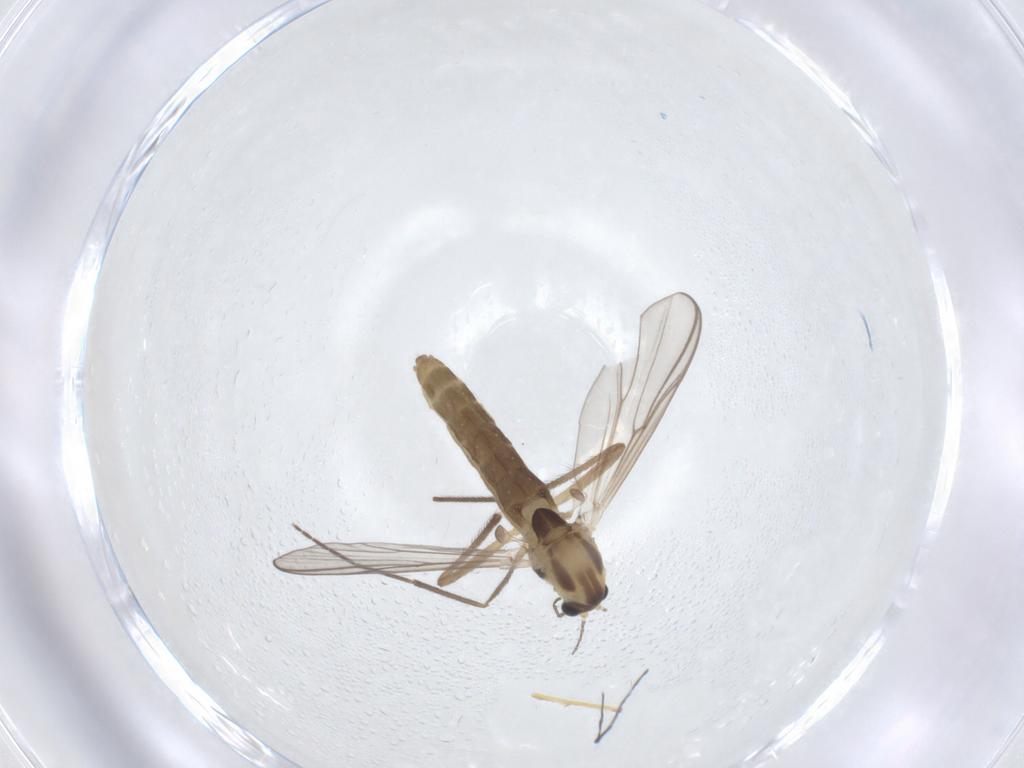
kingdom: Animalia
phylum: Arthropoda
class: Insecta
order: Diptera
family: Chironomidae
